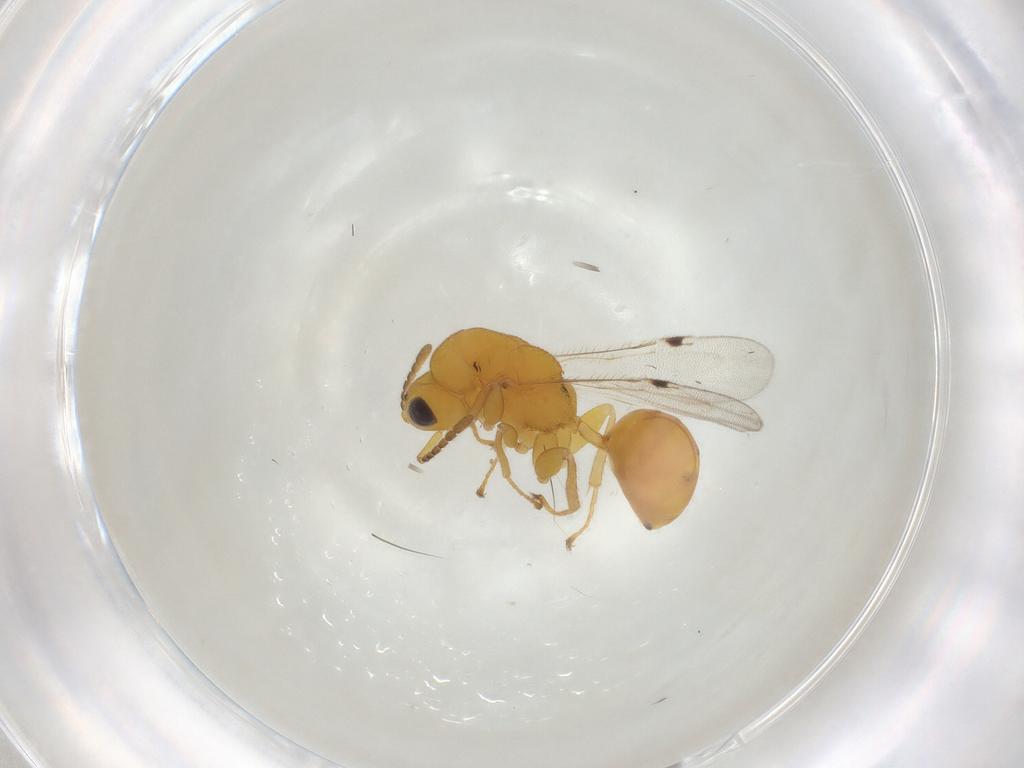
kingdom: Animalia
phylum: Arthropoda
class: Insecta
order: Hymenoptera
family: Eurytomidae
